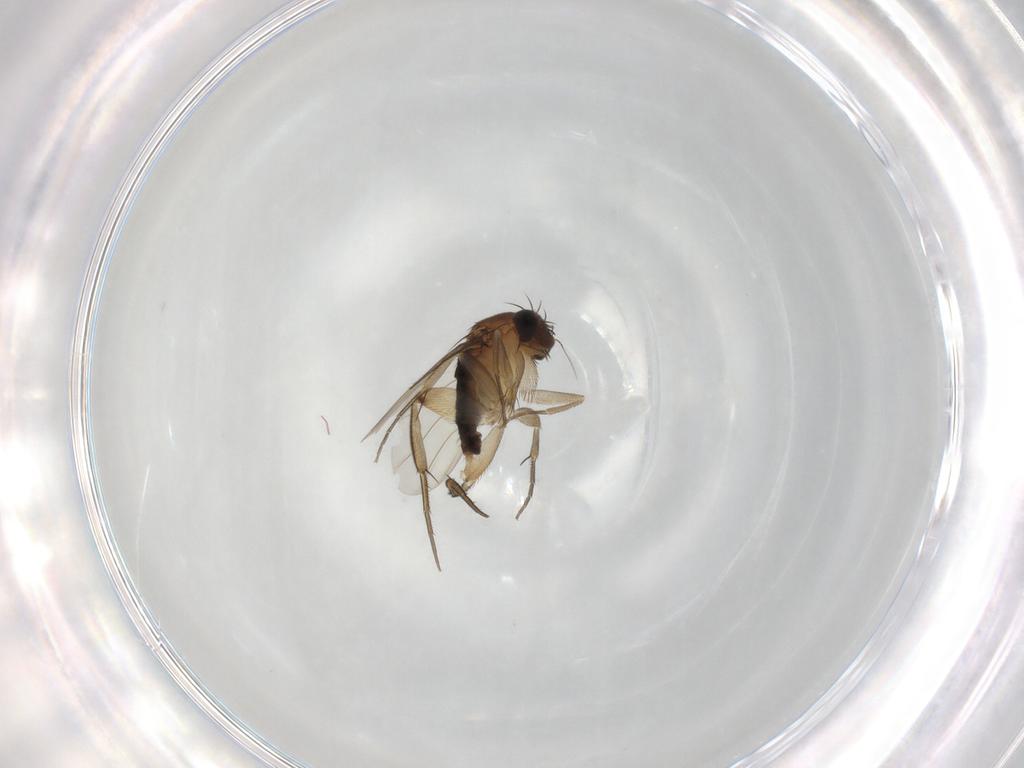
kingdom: Animalia
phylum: Arthropoda
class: Insecta
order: Diptera
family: Phoridae
